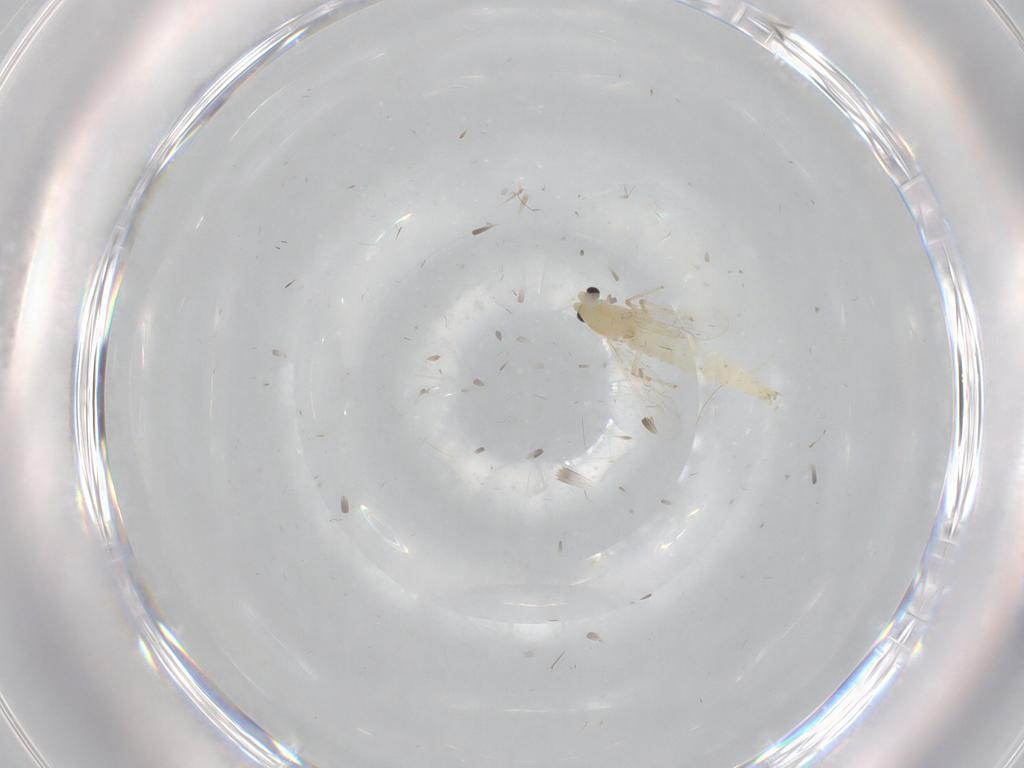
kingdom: Animalia
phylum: Arthropoda
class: Insecta
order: Diptera
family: Chironomidae
